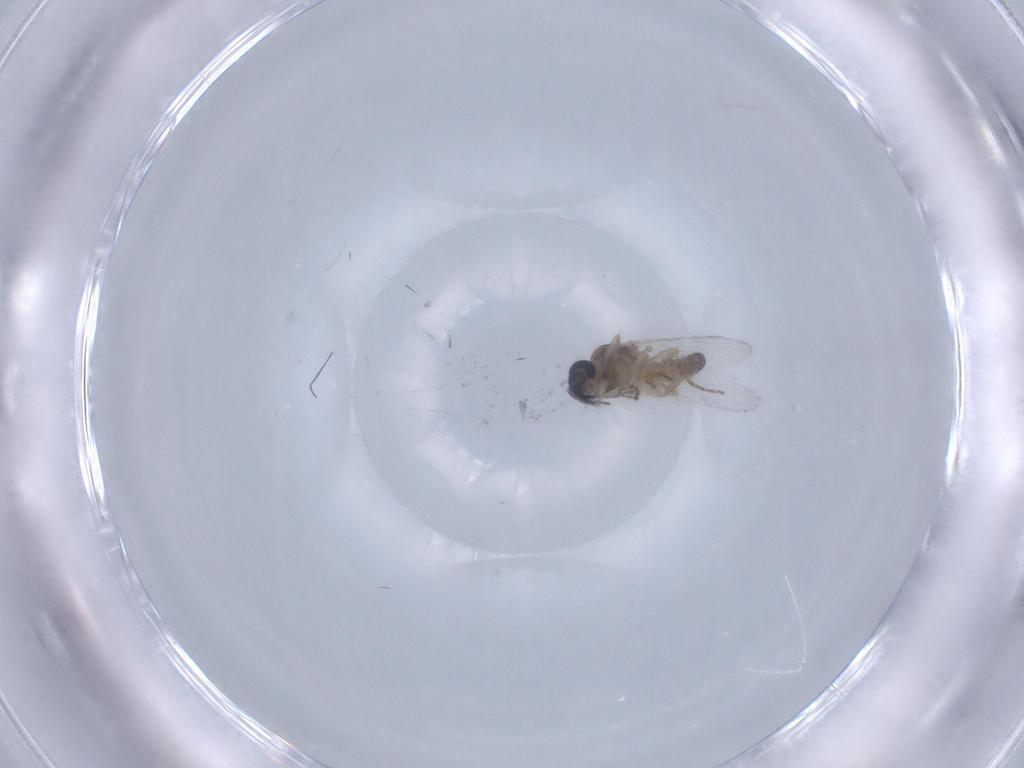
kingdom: Animalia
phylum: Arthropoda
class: Insecta
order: Diptera
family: Ceratopogonidae
